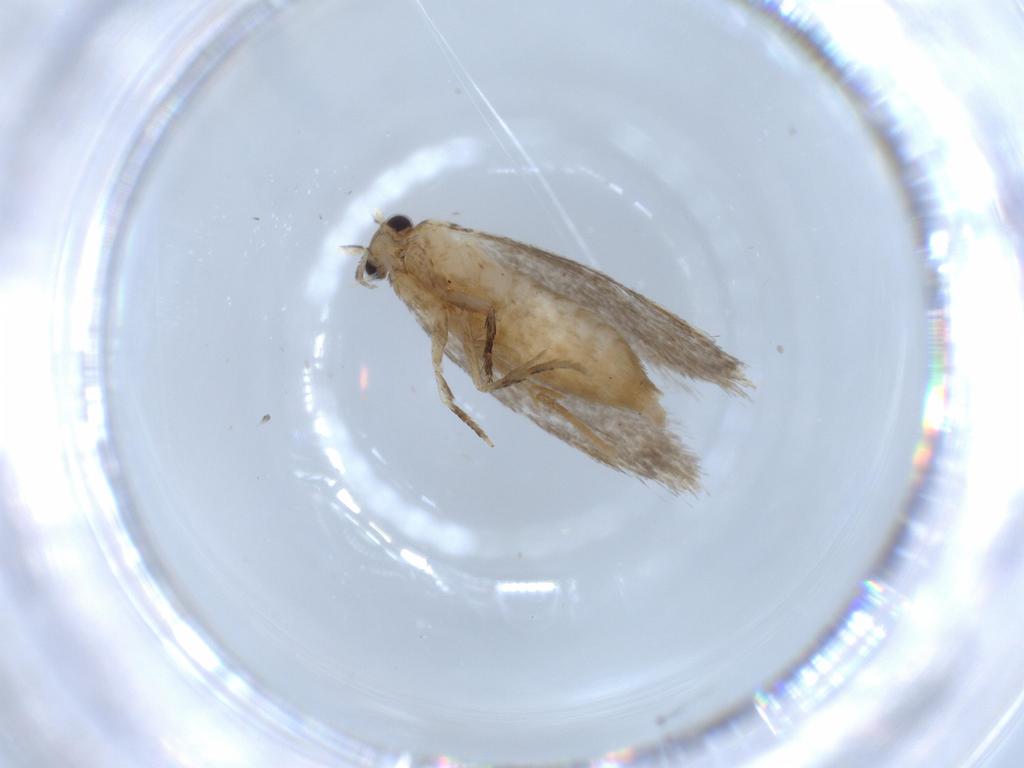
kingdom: Animalia
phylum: Arthropoda
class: Insecta
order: Lepidoptera
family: Tineidae
